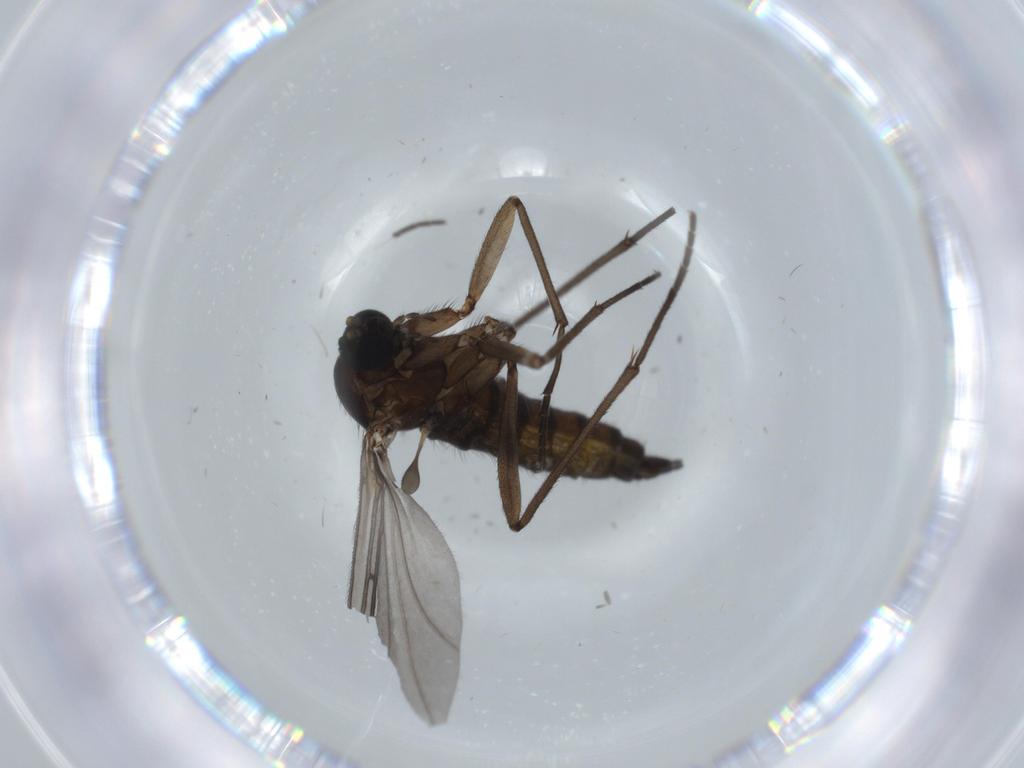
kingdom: Animalia
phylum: Arthropoda
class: Insecta
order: Diptera
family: Sciaridae
